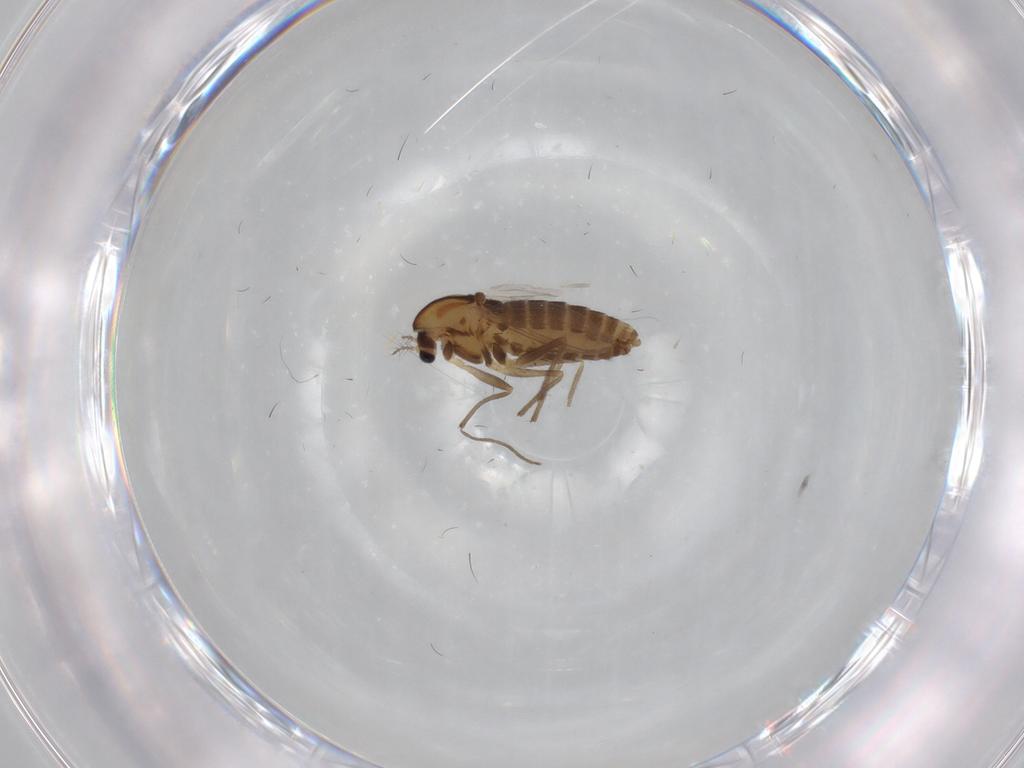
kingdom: Animalia
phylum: Arthropoda
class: Insecta
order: Diptera
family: Chironomidae
